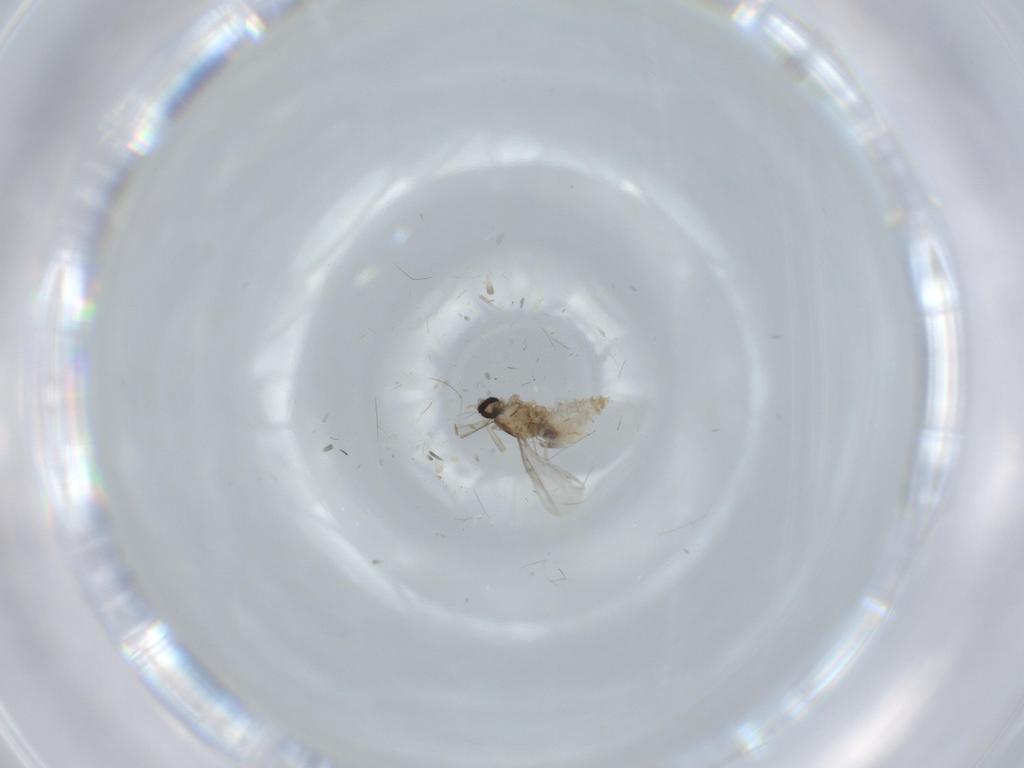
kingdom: Animalia
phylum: Arthropoda
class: Insecta
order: Diptera
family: Cecidomyiidae
